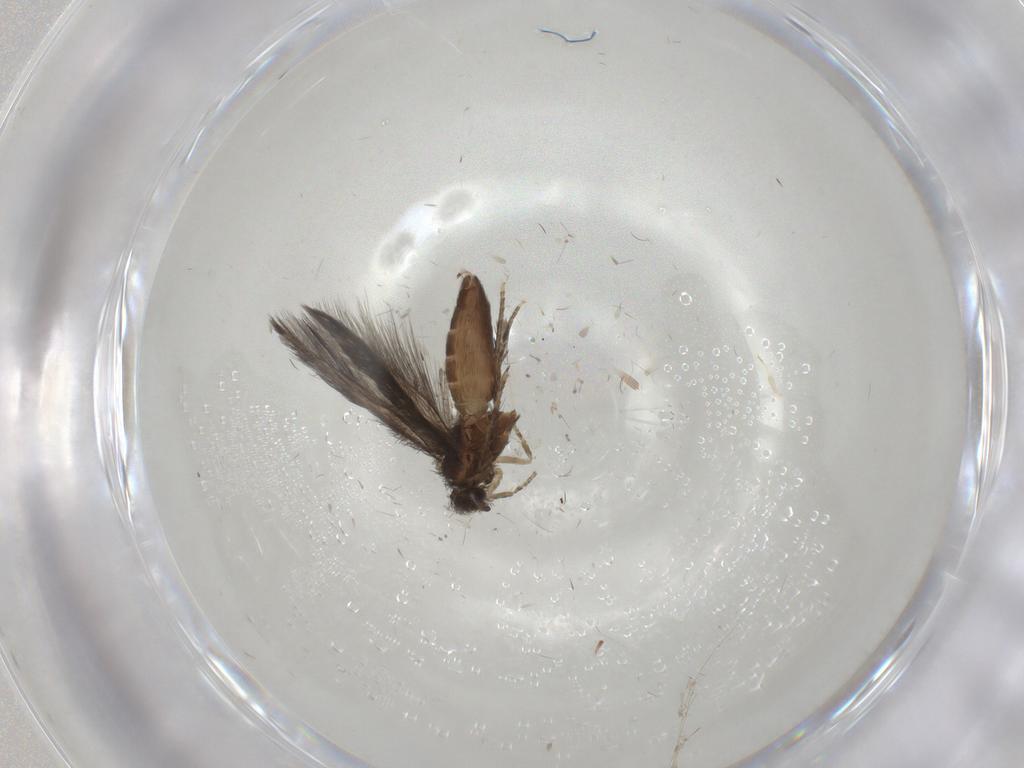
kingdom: Animalia
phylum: Arthropoda
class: Insecta
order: Trichoptera
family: Hydroptilidae
